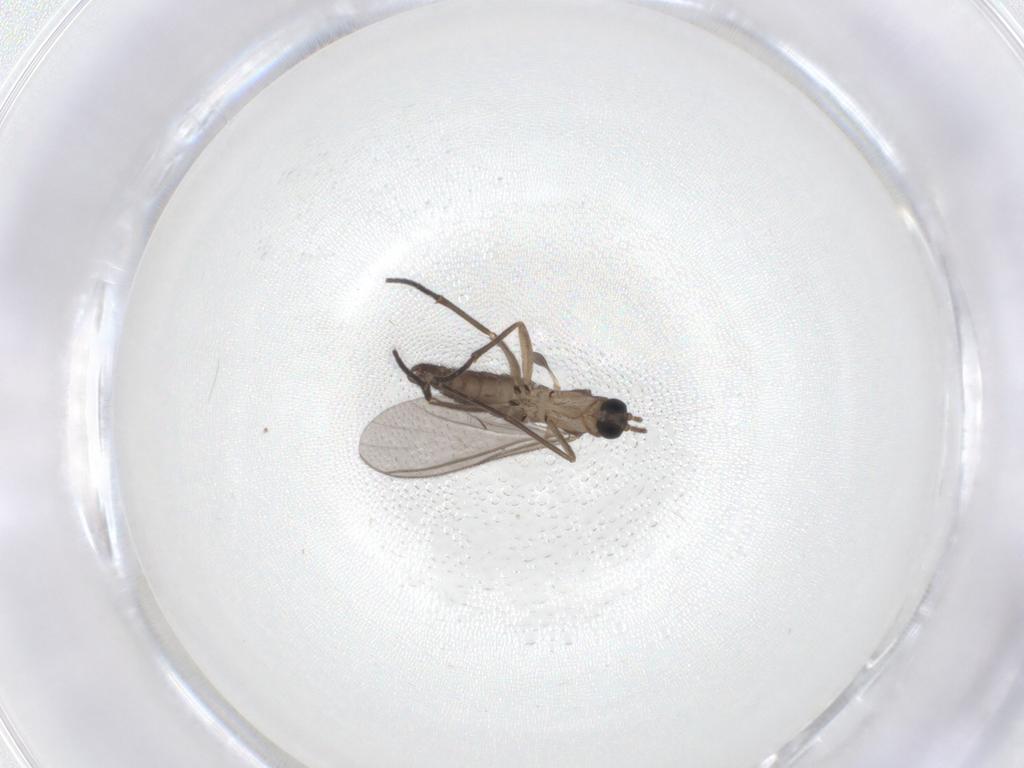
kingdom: Animalia
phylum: Arthropoda
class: Insecta
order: Diptera
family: Sciaridae
